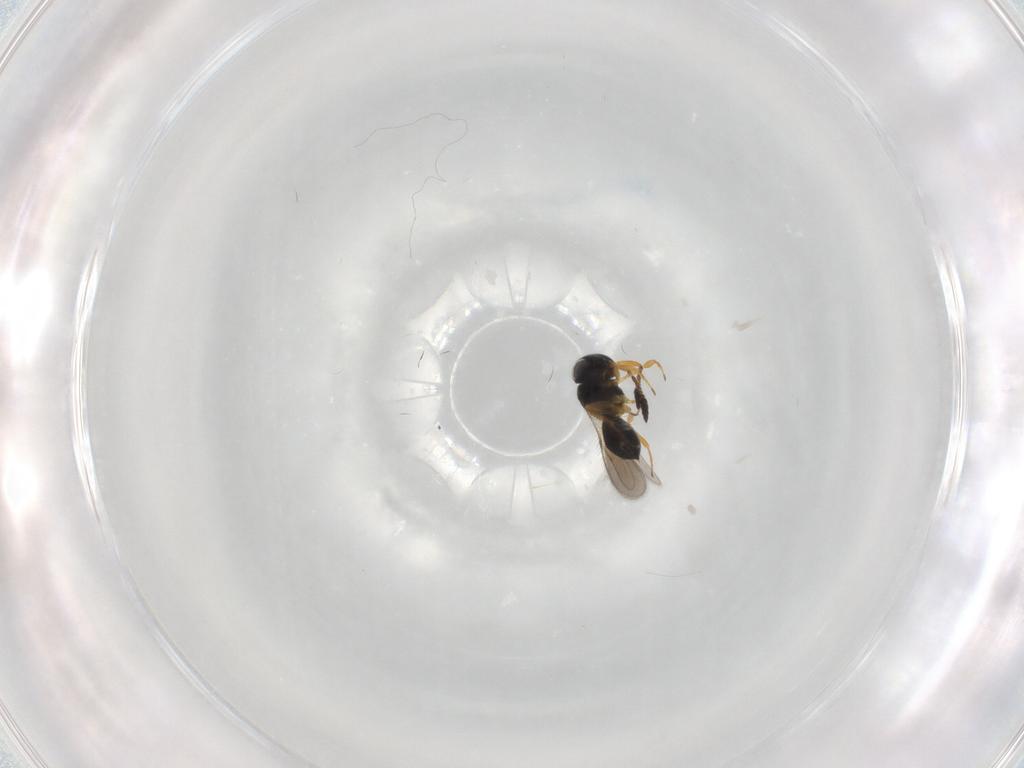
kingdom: Animalia
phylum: Arthropoda
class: Insecta
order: Hymenoptera
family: Scelionidae
